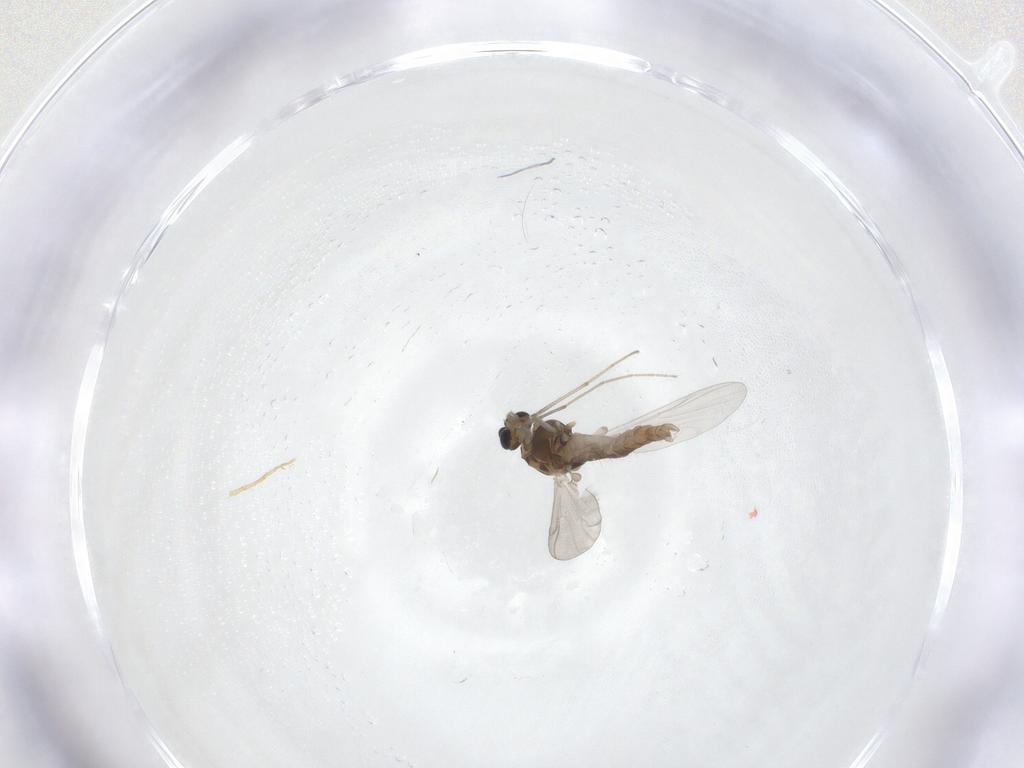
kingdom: Animalia
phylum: Arthropoda
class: Insecta
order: Diptera
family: Chironomidae
